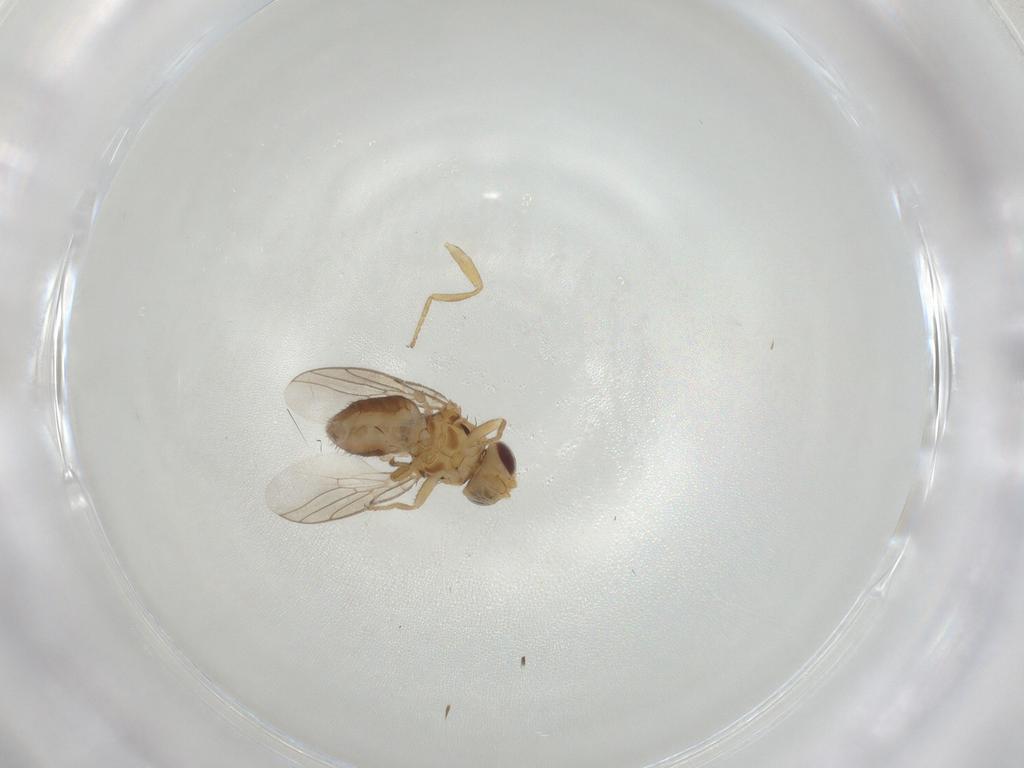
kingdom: Animalia
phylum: Arthropoda
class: Insecta
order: Diptera
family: Chloropidae
